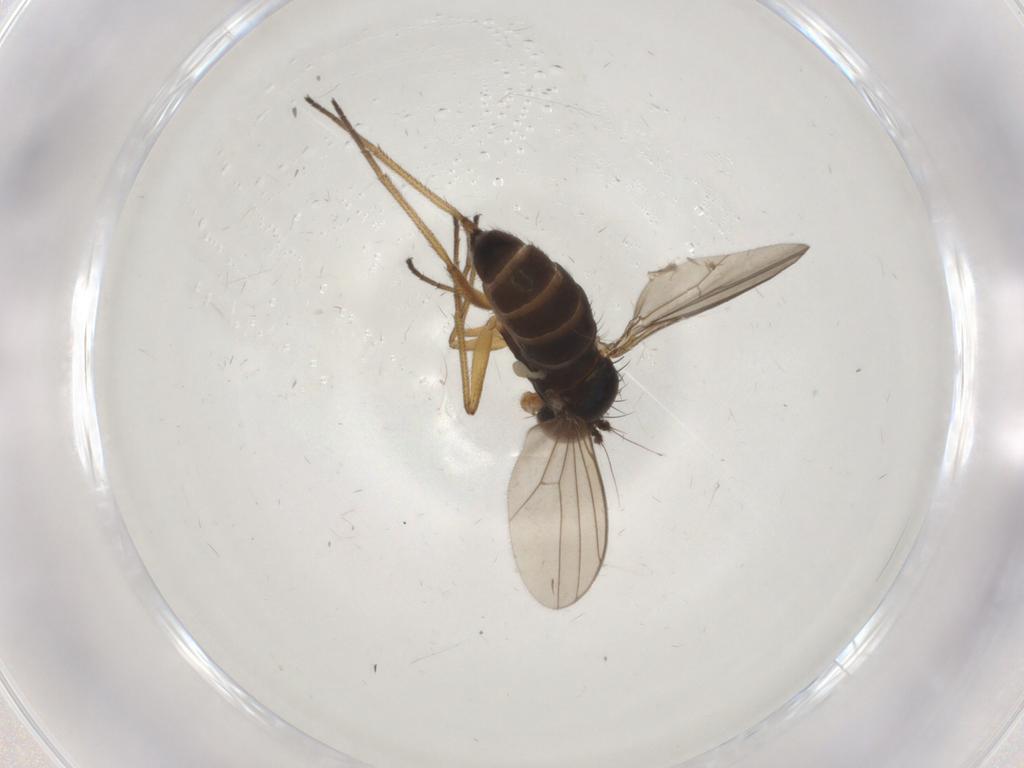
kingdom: Animalia
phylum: Arthropoda
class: Insecta
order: Diptera
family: Dolichopodidae
